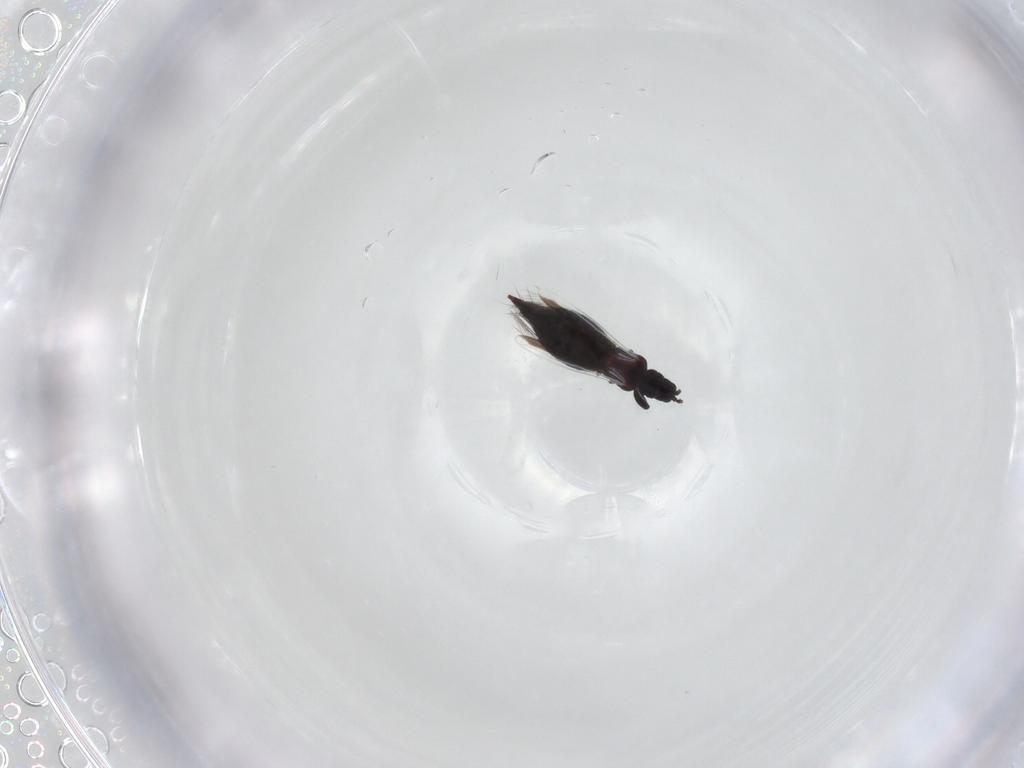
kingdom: Animalia
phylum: Arthropoda
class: Insecta
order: Thysanoptera
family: Aeolothripidae
